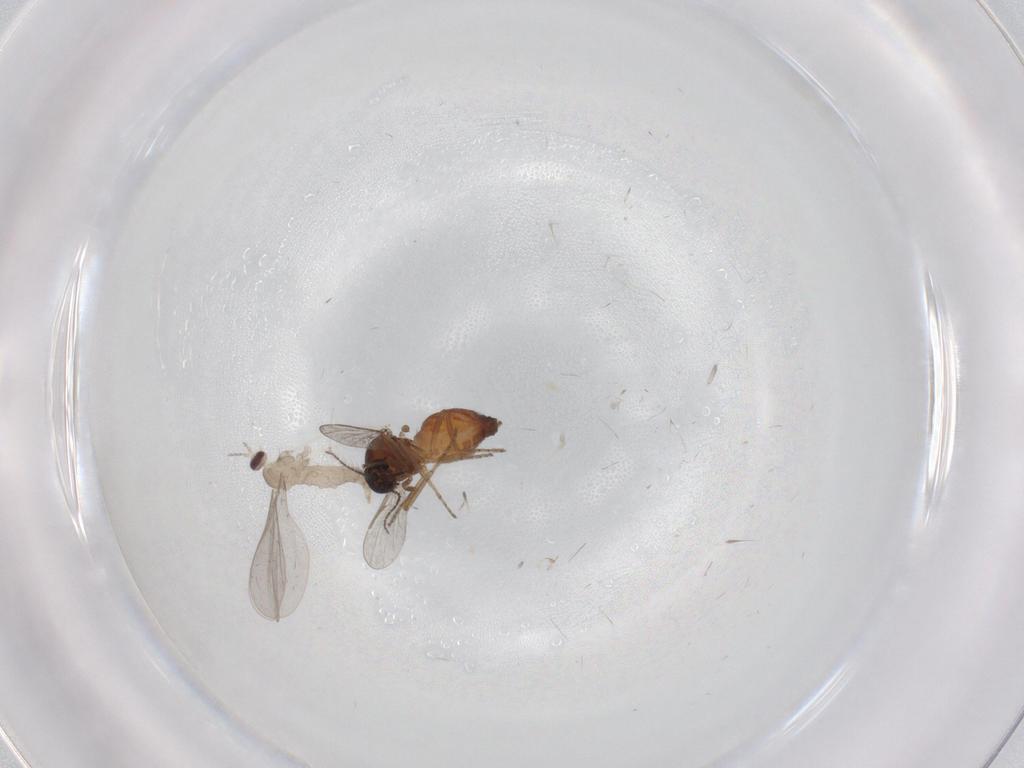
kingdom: Animalia
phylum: Arthropoda
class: Insecta
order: Diptera
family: Ceratopogonidae
